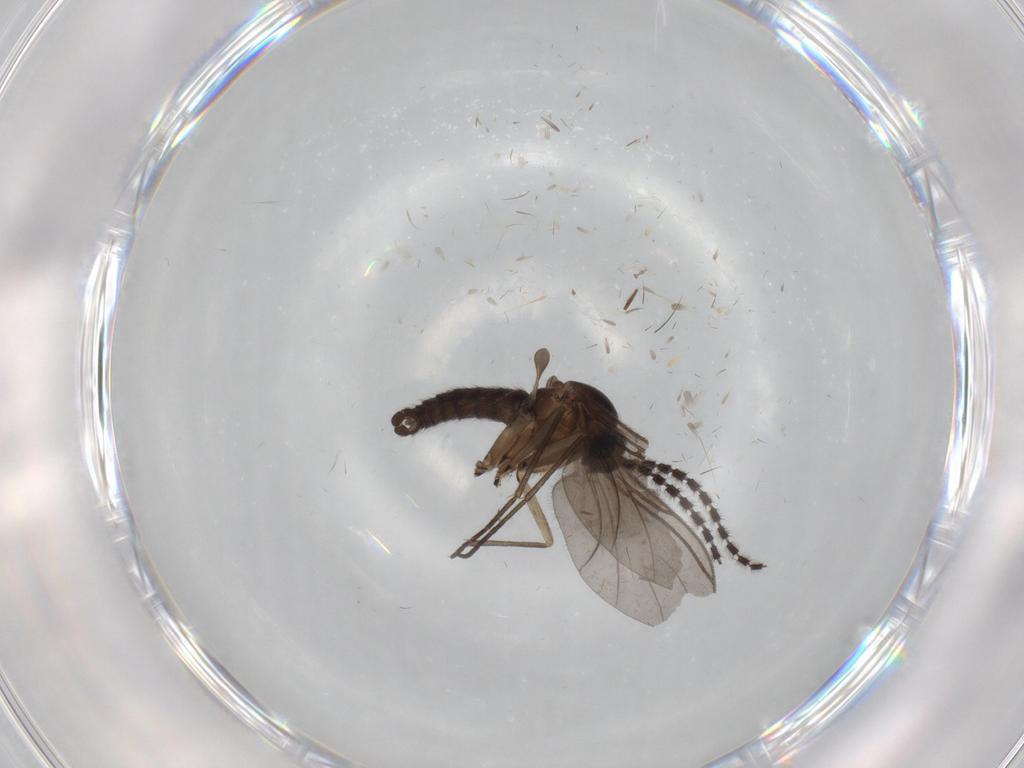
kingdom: Animalia
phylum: Arthropoda
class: Insecta
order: Diptera
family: Sciaridae
